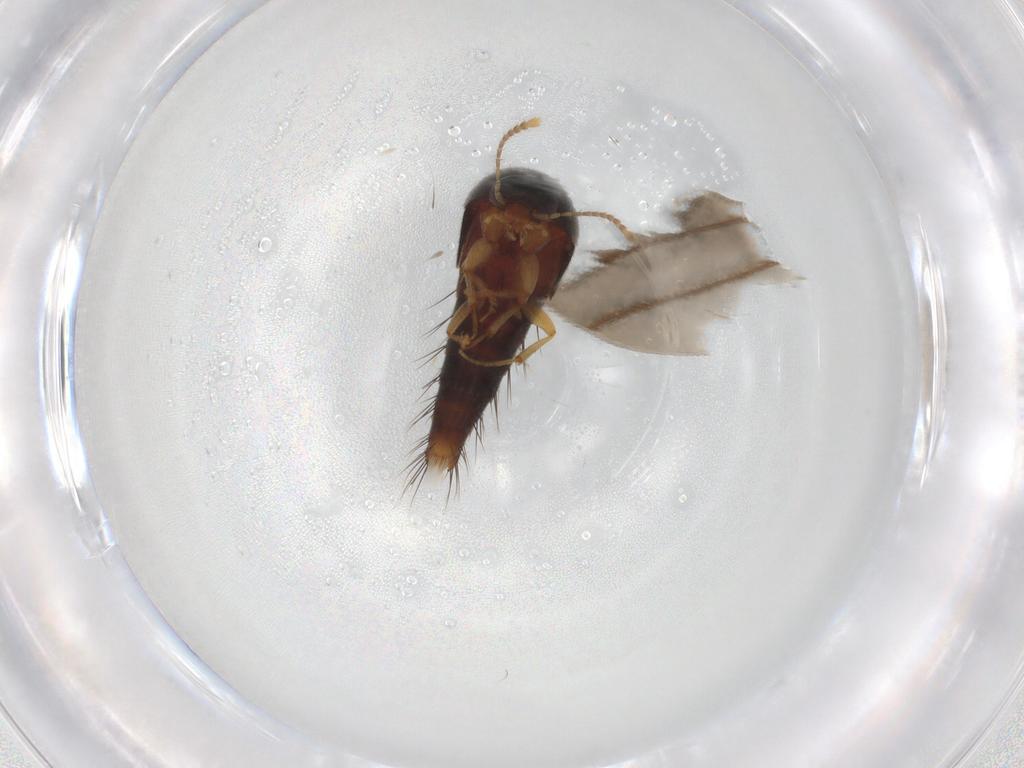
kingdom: Animalia
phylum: Arthropoda
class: Insecta
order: Coleoptera
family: Staphylinidae
